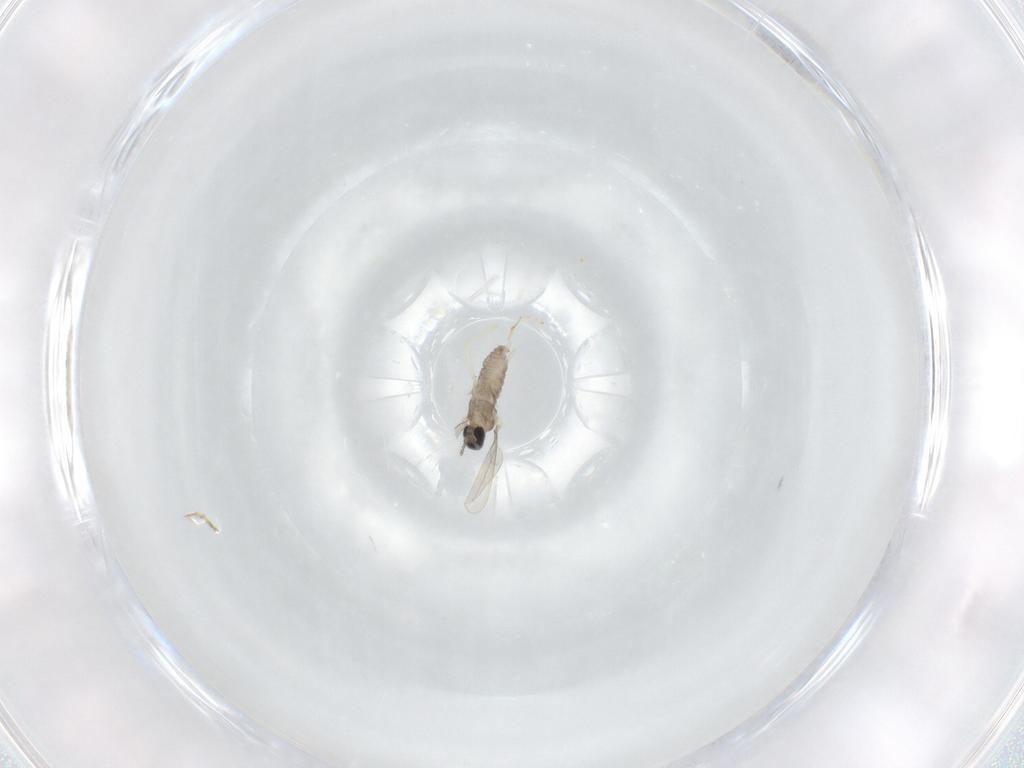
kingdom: Animalia
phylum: Arthropoda
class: Insecta
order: Diptera
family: Cecidomyiidae
